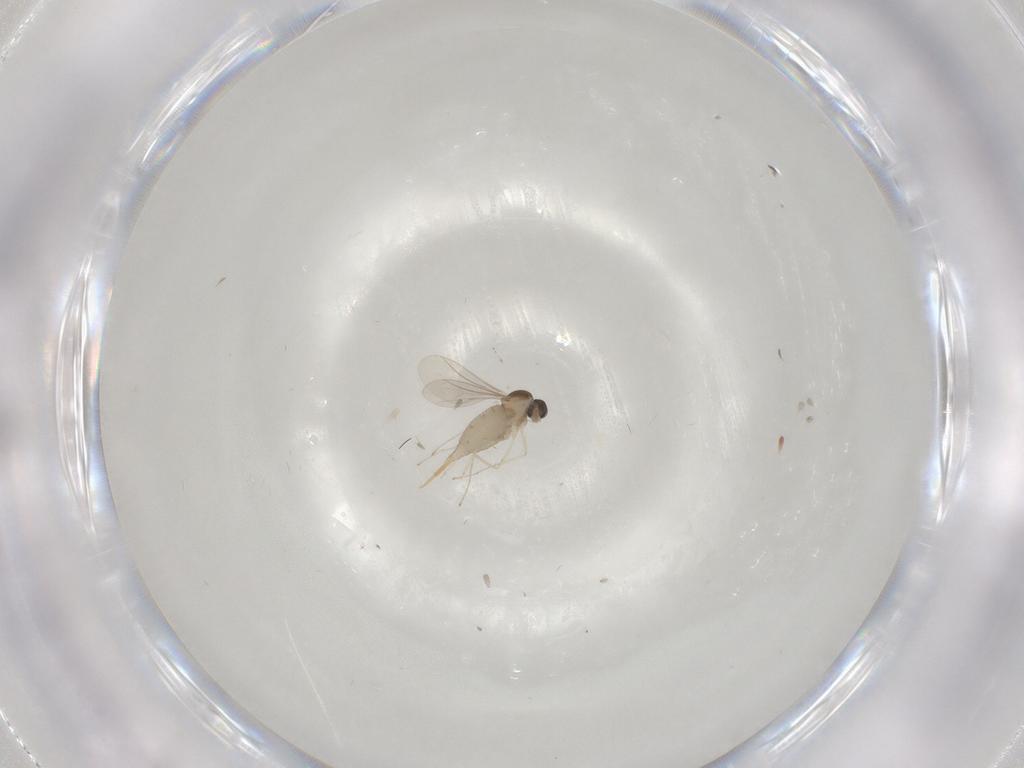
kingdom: Animalia
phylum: Arthropoda
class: Insecta
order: Diptera
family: Cecidomyiidae
